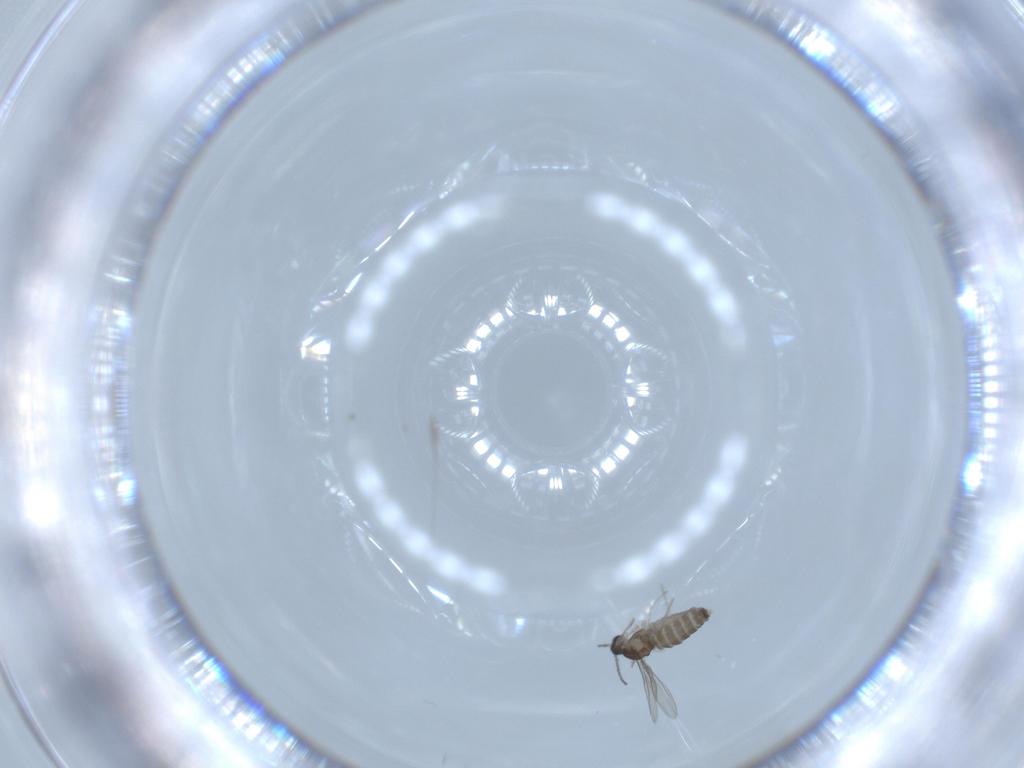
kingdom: Animalia
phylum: Arthropoda
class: Insecta
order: Diptera
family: Cecidomyiidae
